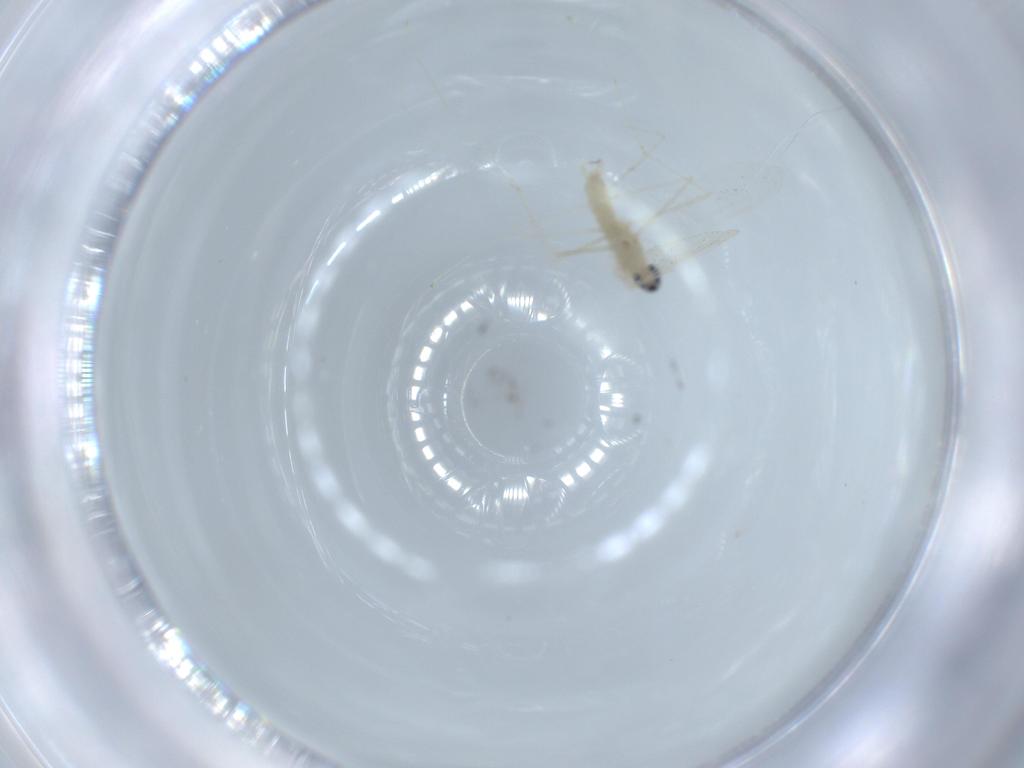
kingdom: Animalia
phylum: Arthropoda
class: Insecta
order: Diptera
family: Cecidomyiidae
